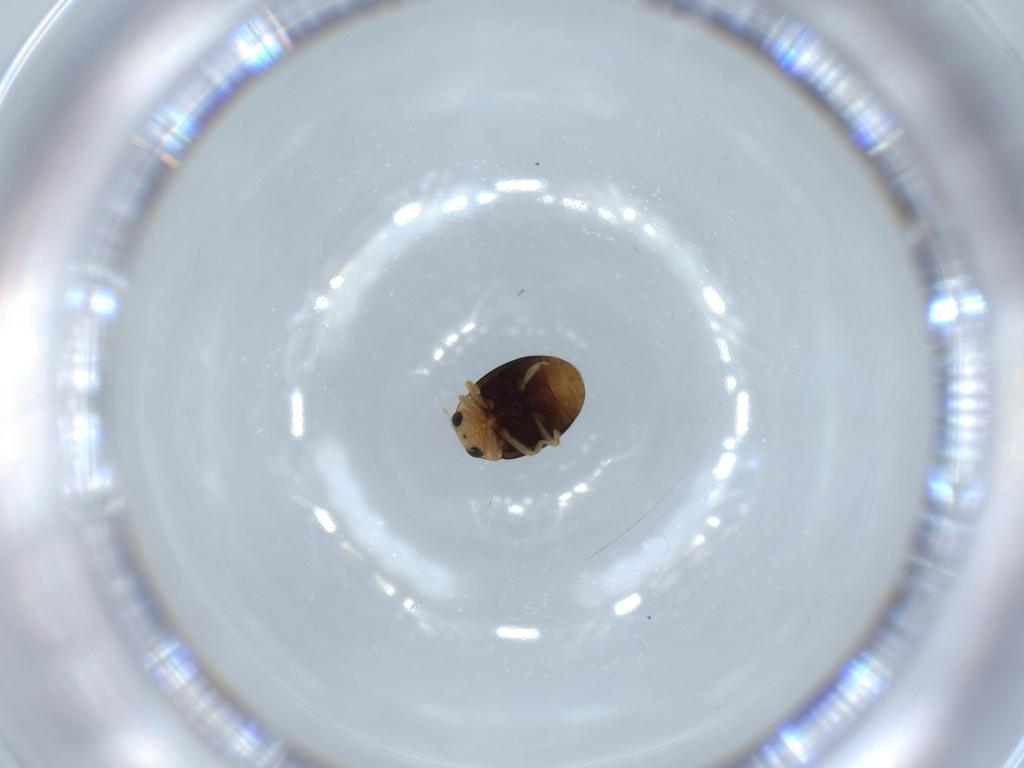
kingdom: Animalia
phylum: Arthropoda
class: Insecta
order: Coleoptera
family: Coccinellidae
